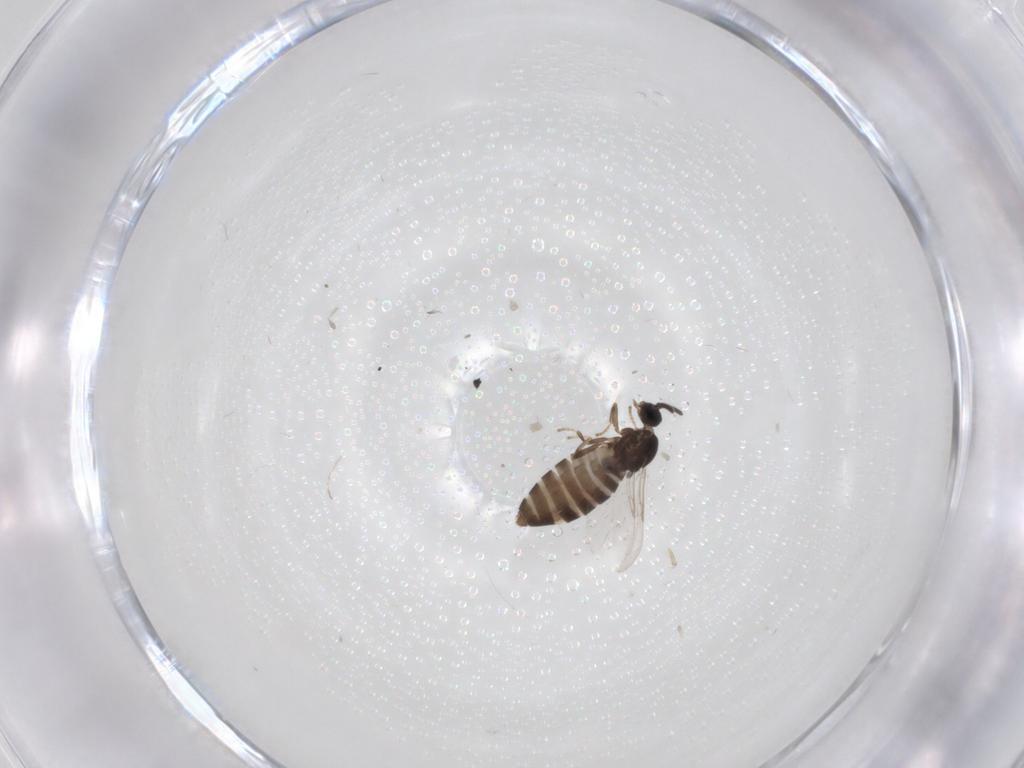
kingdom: Animalia
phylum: Arthropoda
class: Insecta
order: Diptera
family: Scatopsidae
